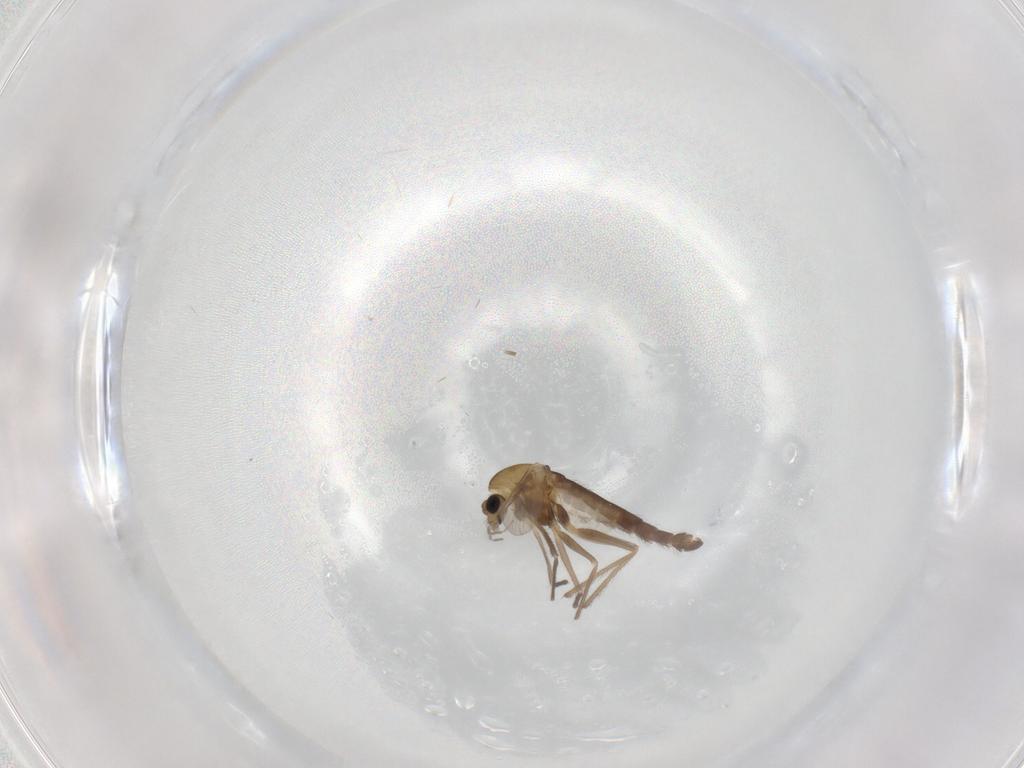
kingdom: Animalia
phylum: Arthropoda
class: Insecta
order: Diptera
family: Chironomidae
